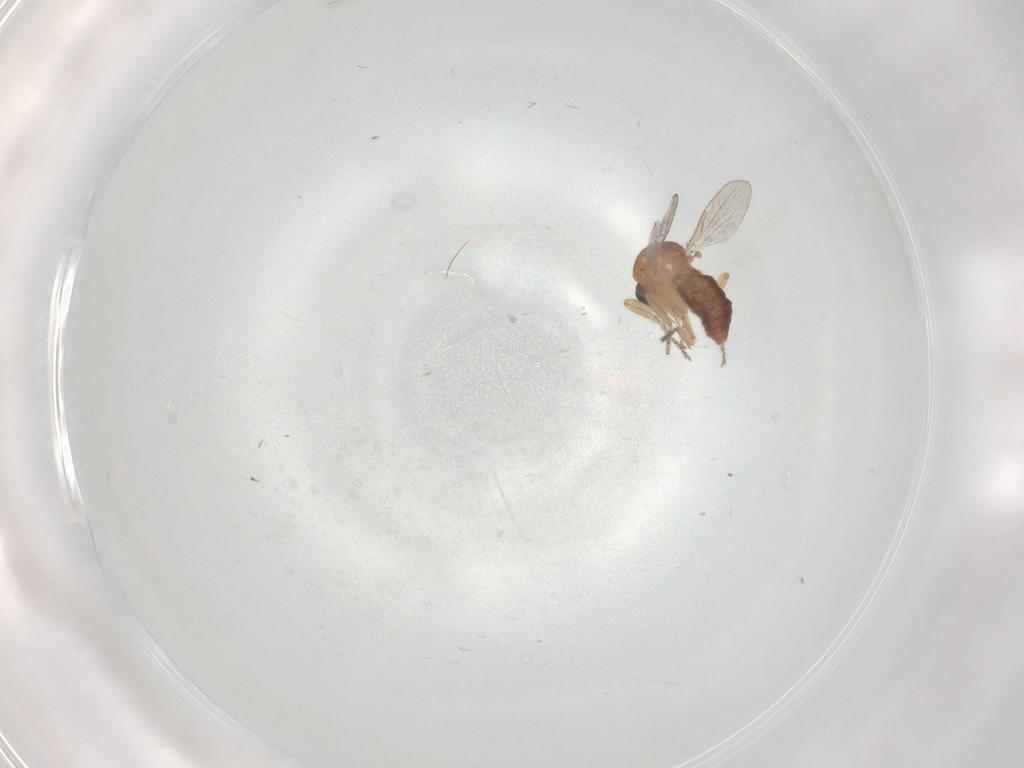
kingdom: Animalia
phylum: Arthropoda
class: Insecta
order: Diptera
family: Ceratopogonidae
